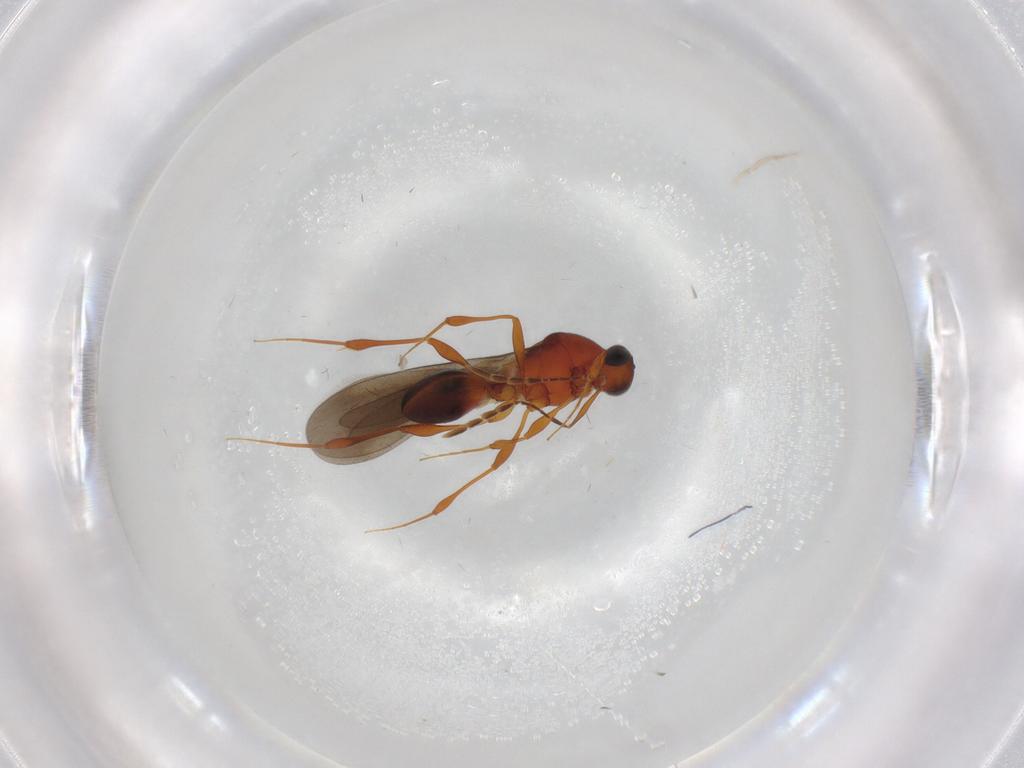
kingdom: Animalia
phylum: Arthropoda
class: Insecta
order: Hymenoptera
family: Platygastridae
